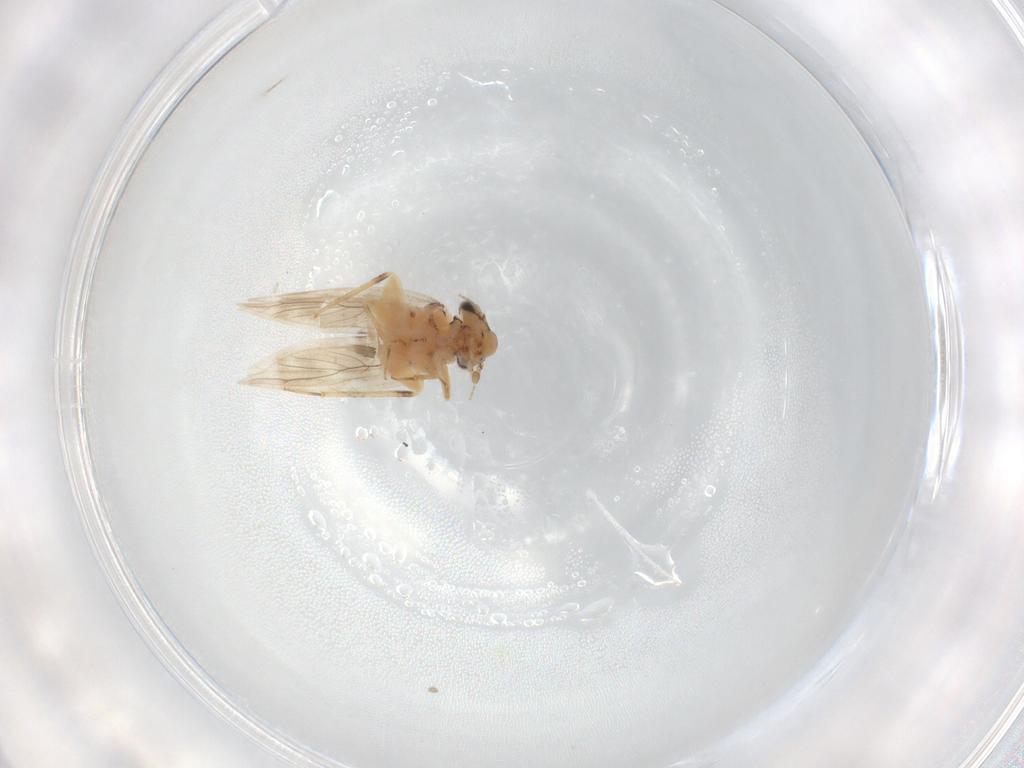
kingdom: Animalia
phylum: Arthropoda
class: Insecta
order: Psocodea
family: Lepidopsocidae
